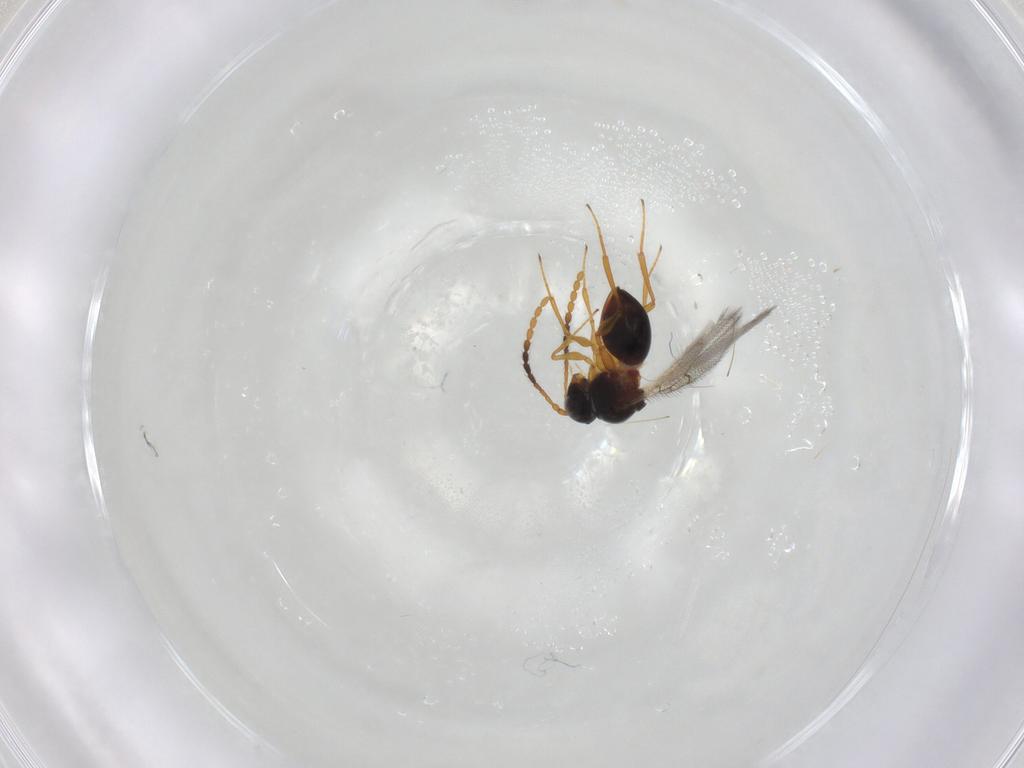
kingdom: Animalia
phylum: Arthropoda
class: Insecta
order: Hymenoptera
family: Figitidae
